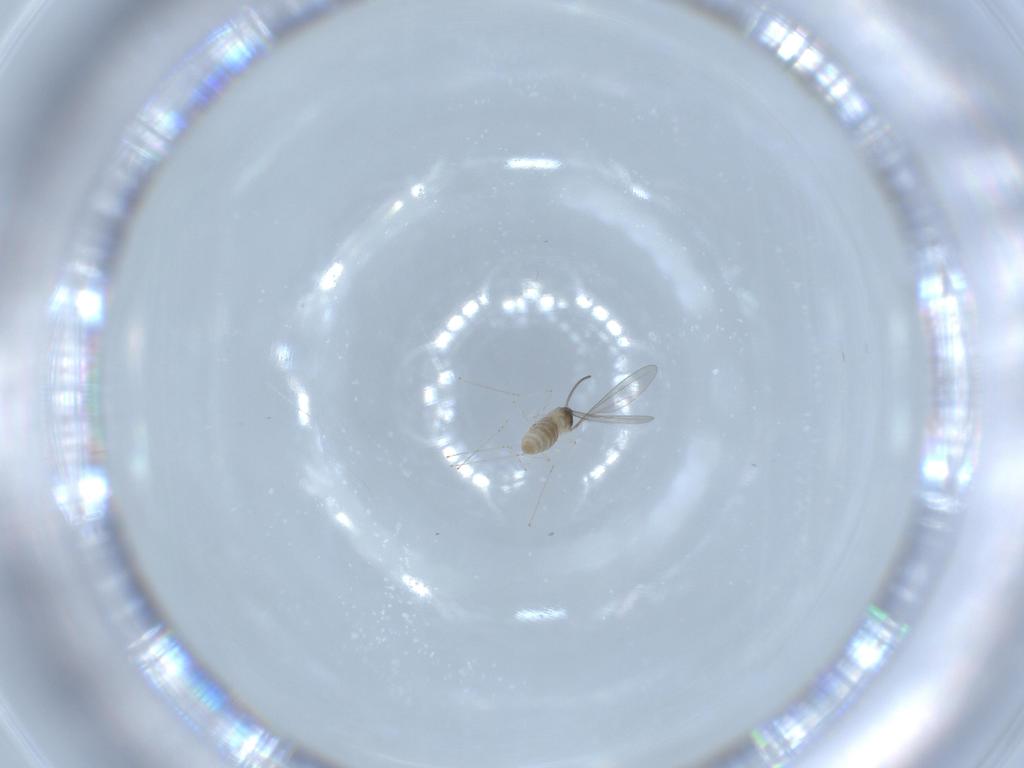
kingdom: Animalia
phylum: Arthropoda
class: Insecta
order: Diptera
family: Cecidomyiidae
